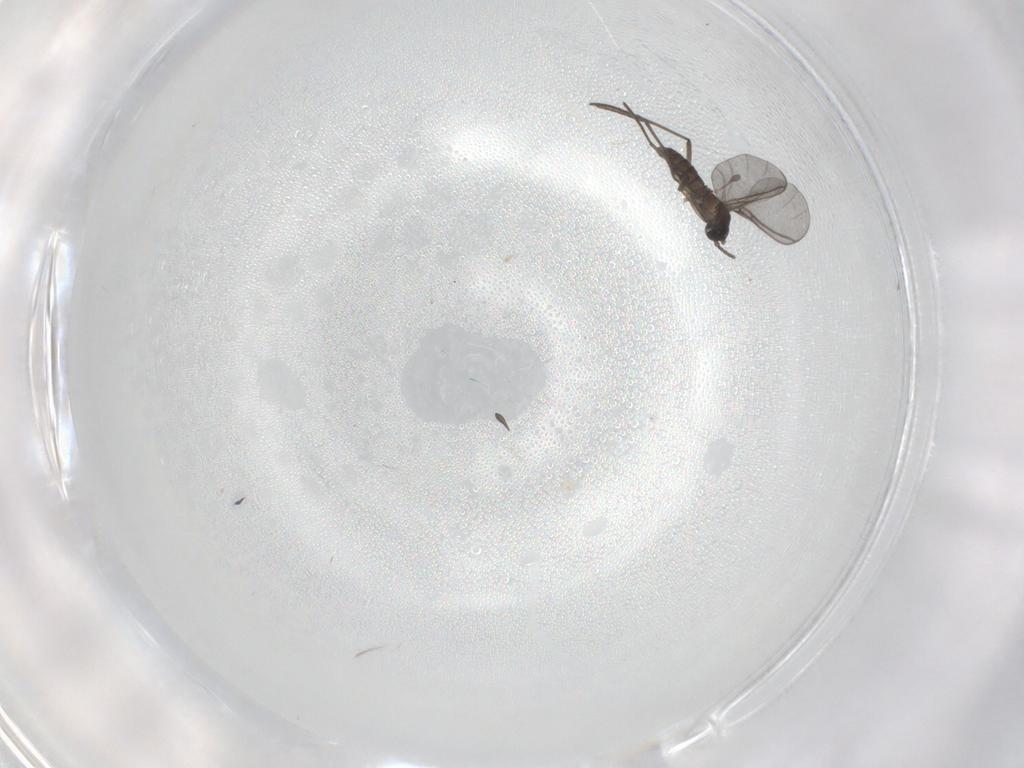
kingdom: Animalia
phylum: Arthropoda
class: Insecta
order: Diptera
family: Sciaridae
